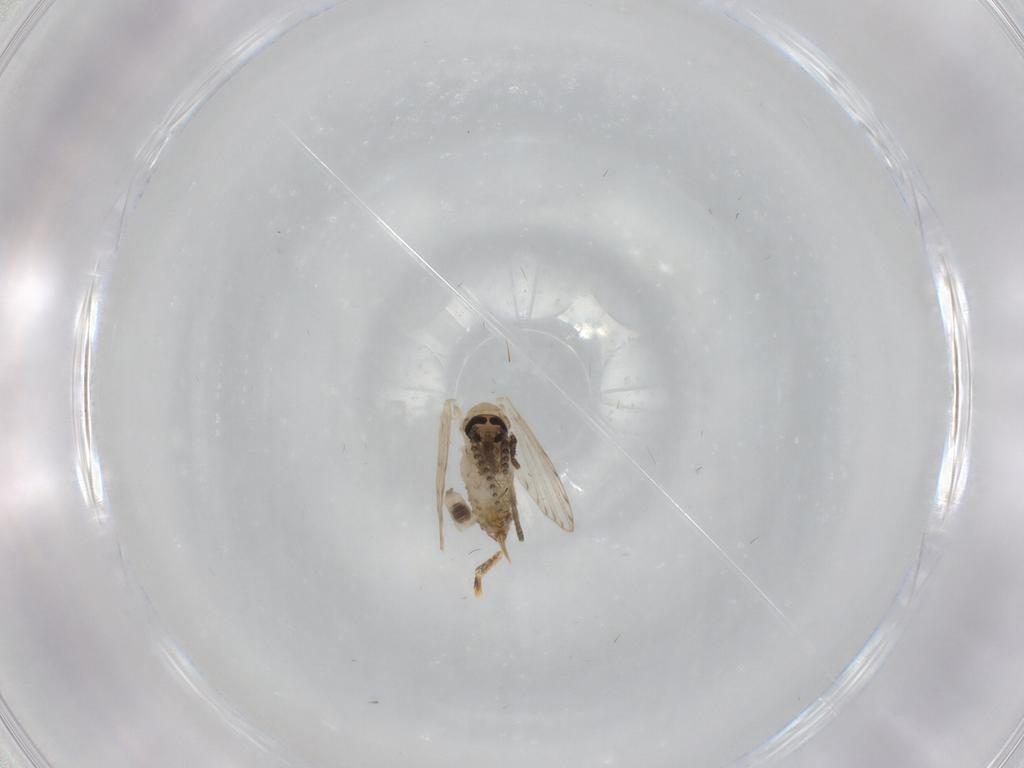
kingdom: Animalia
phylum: Arthropoda
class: Insecta
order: Diptera
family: Psychodidae
